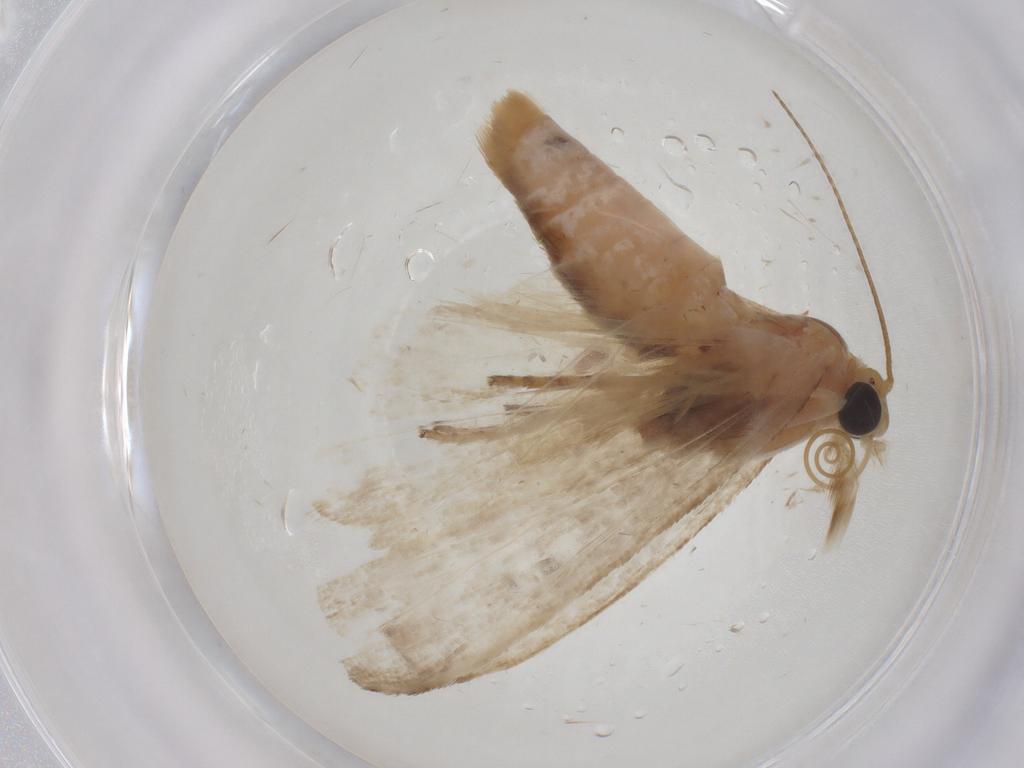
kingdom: Animalia
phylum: Arthropoda
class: Insecta
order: Lepidoptera
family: Pyralidae
